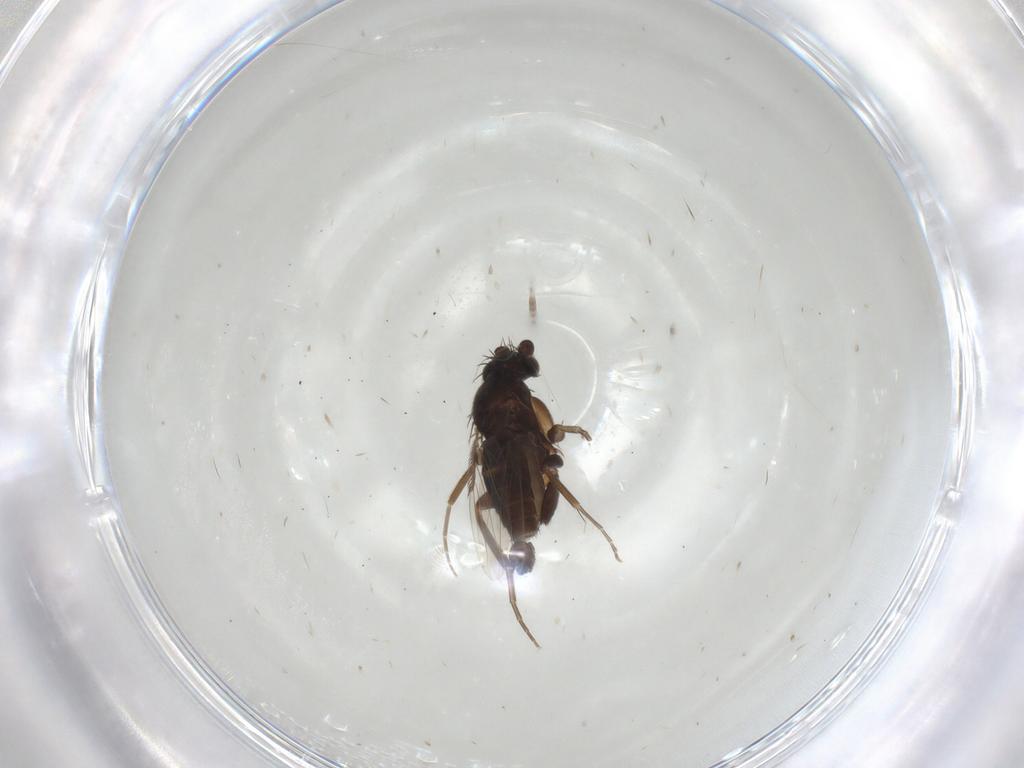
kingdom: Animalia
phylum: Arthropoda
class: Insecta
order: Diptera
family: Phoridae
